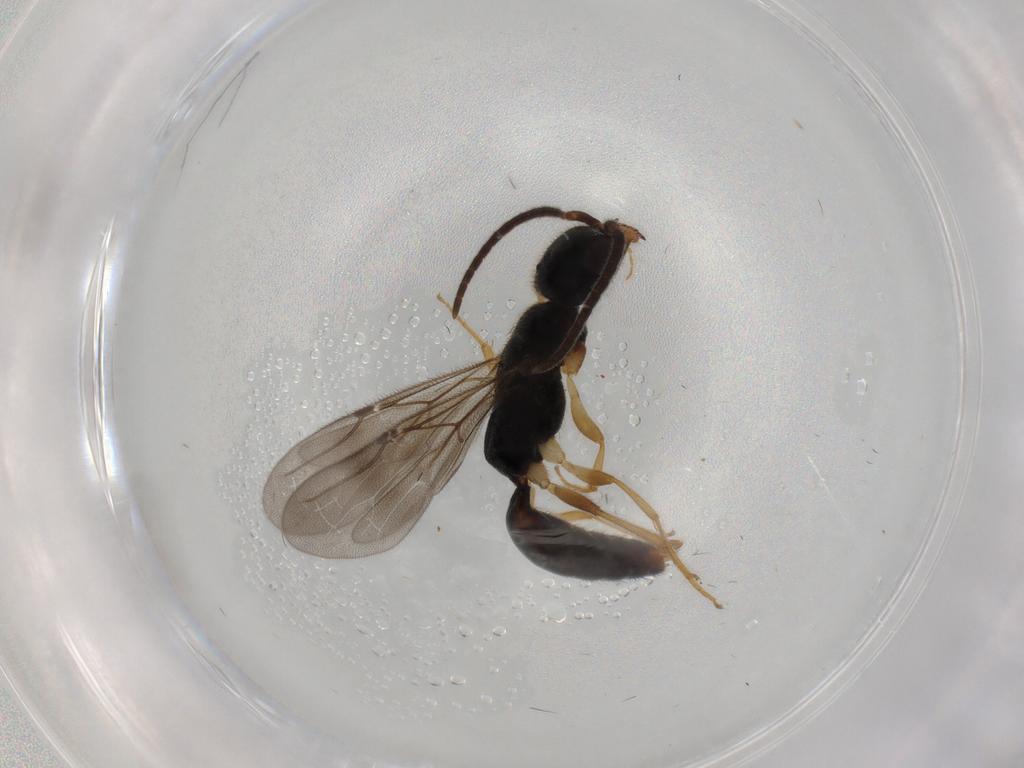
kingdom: Animalia
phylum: Arthropoda
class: Insecta
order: Hymenoptera
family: Bethylidae
